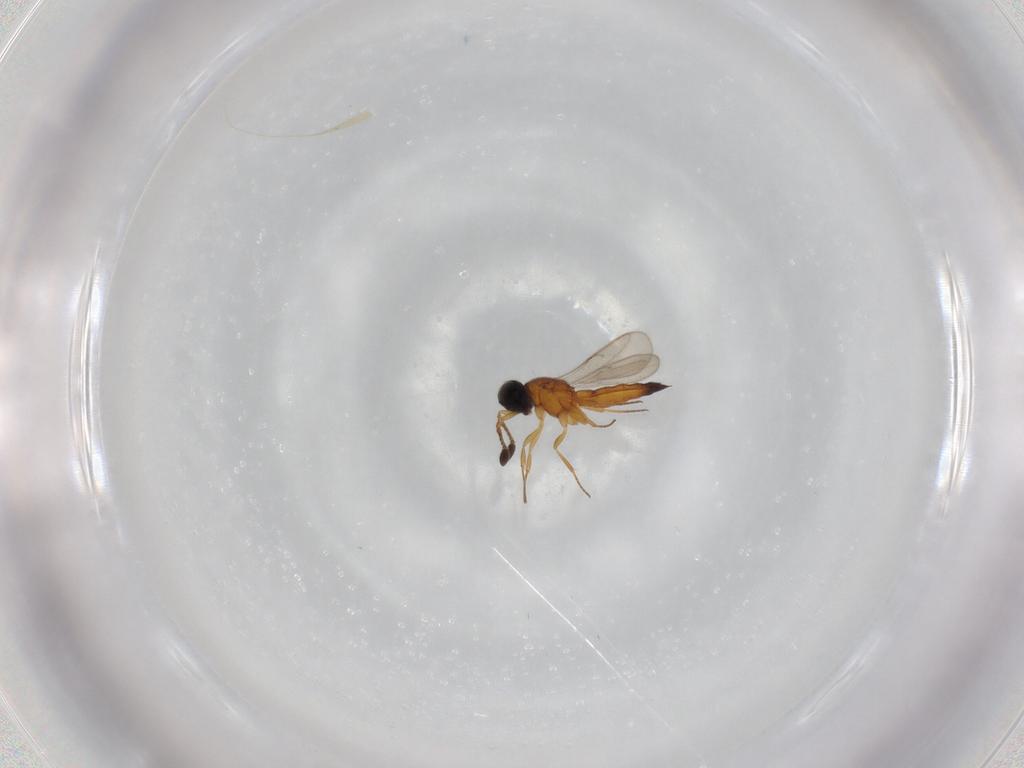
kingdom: Animalia
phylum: Arthropoda
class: Insecta
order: Hymenoptera
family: Scelionidae
